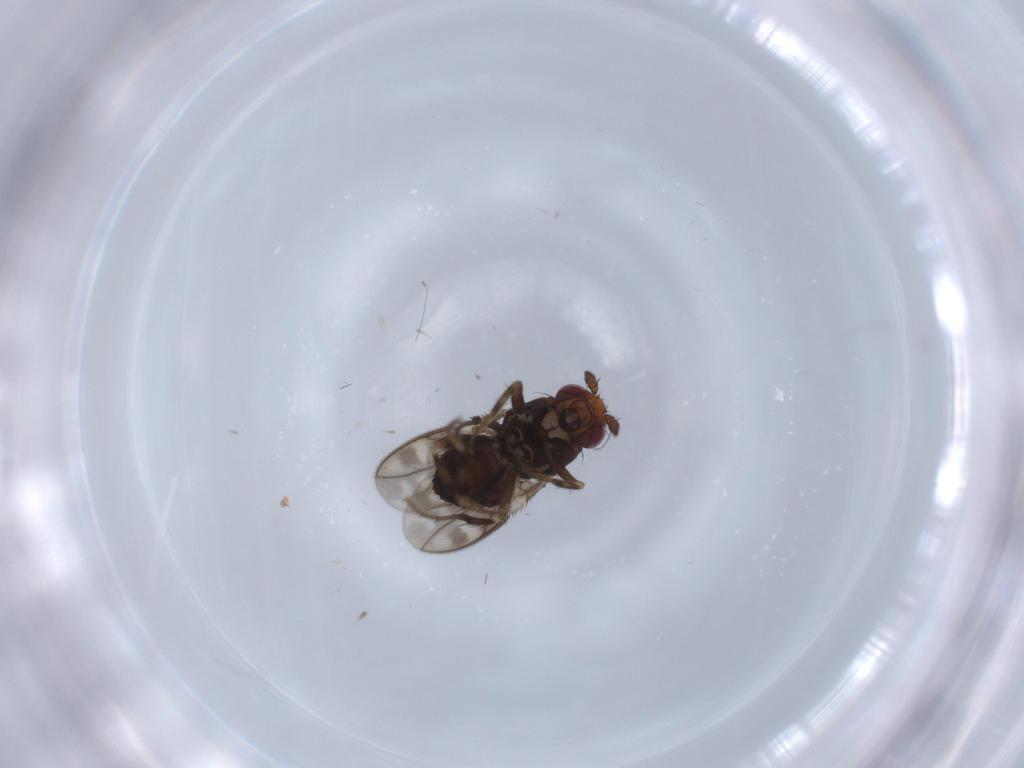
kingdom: Animalia
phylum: Arthropoda
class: Insecta
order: Diptera
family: Sphaeroceridae
